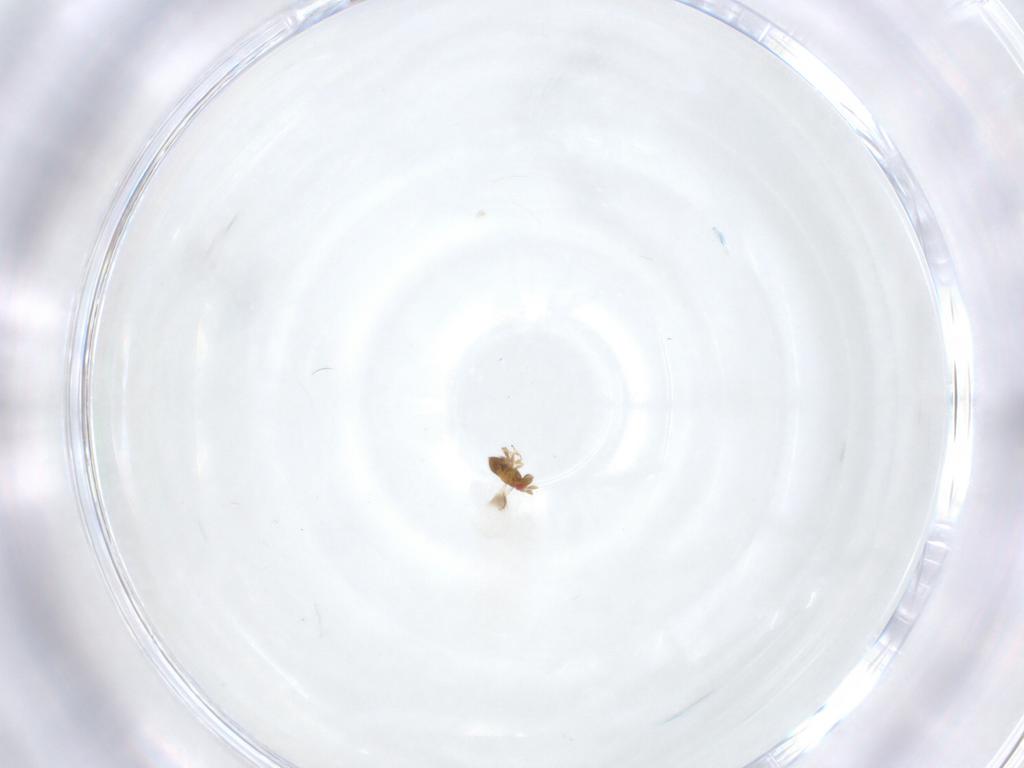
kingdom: Animalia
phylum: Arthropoda
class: Insecta
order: Hymenoptera
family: Trichogrammatidae
